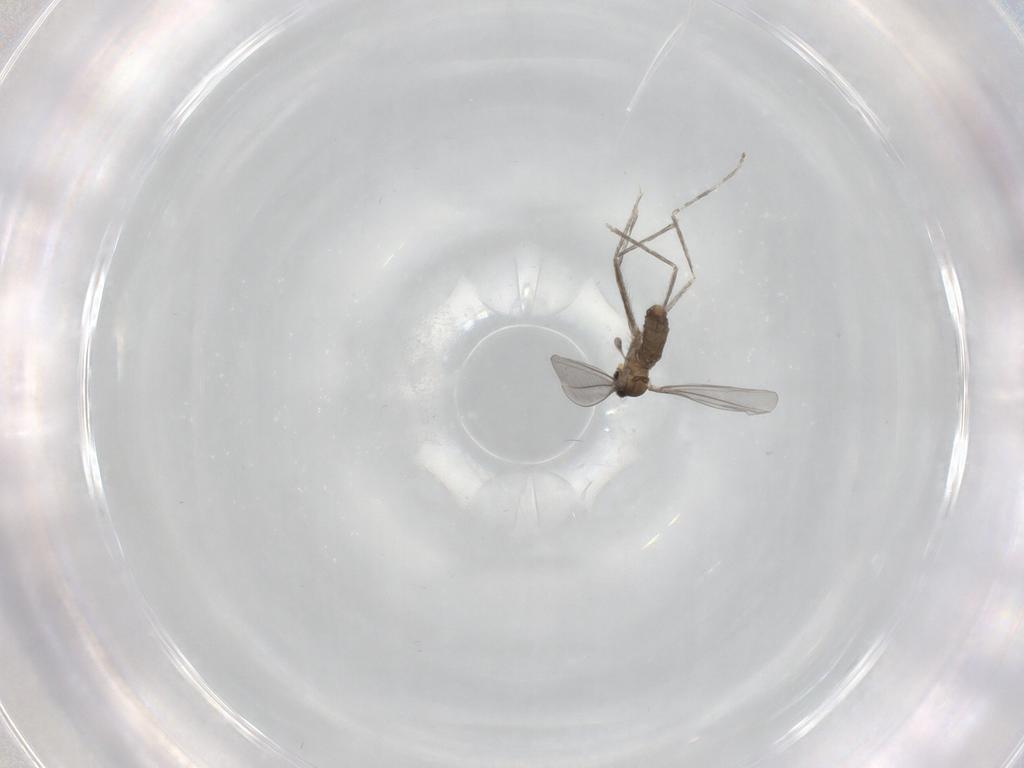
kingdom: Animalia
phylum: Arthropoda
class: Insecta
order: Diptera
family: Cecidomyiidae
